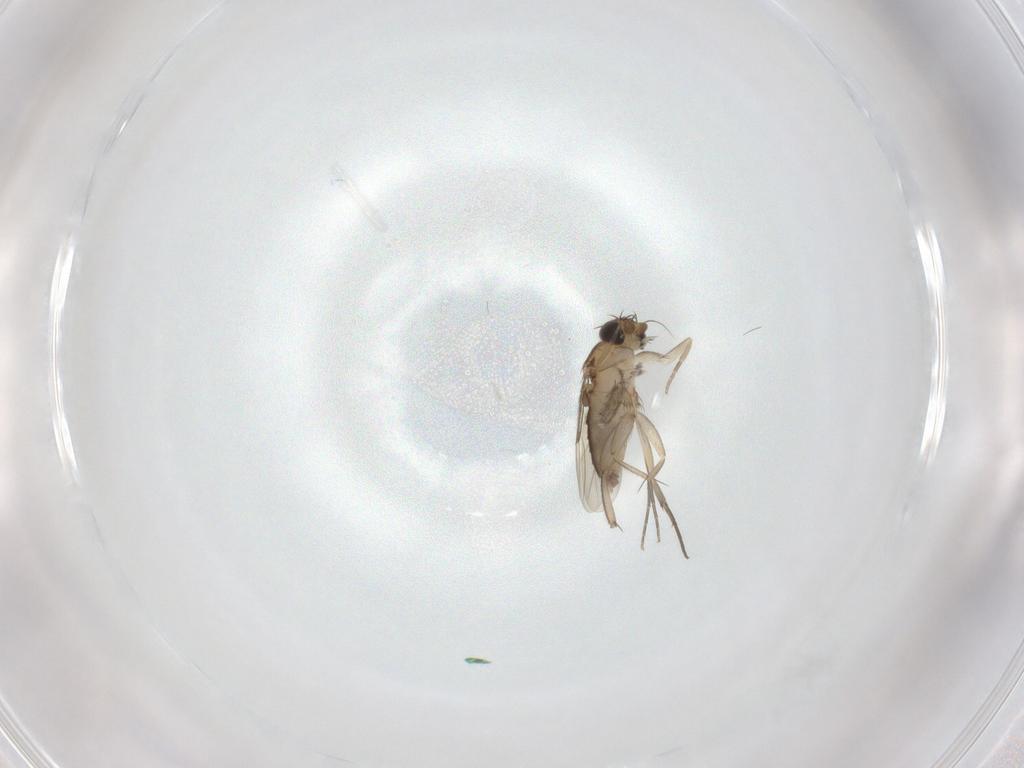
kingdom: Animalia
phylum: Arthropoda
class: Insecta
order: Diptera
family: Phoridae
